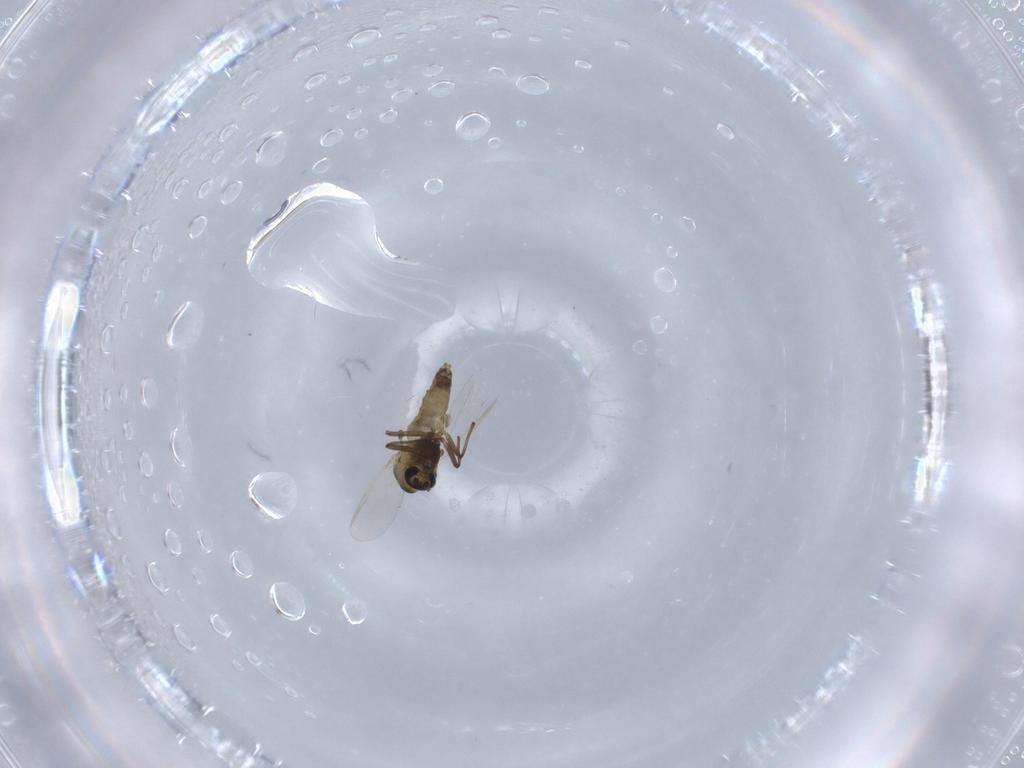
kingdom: Animalia
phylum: Arthropoda
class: Insecta
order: Diptera
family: Chironomidae
